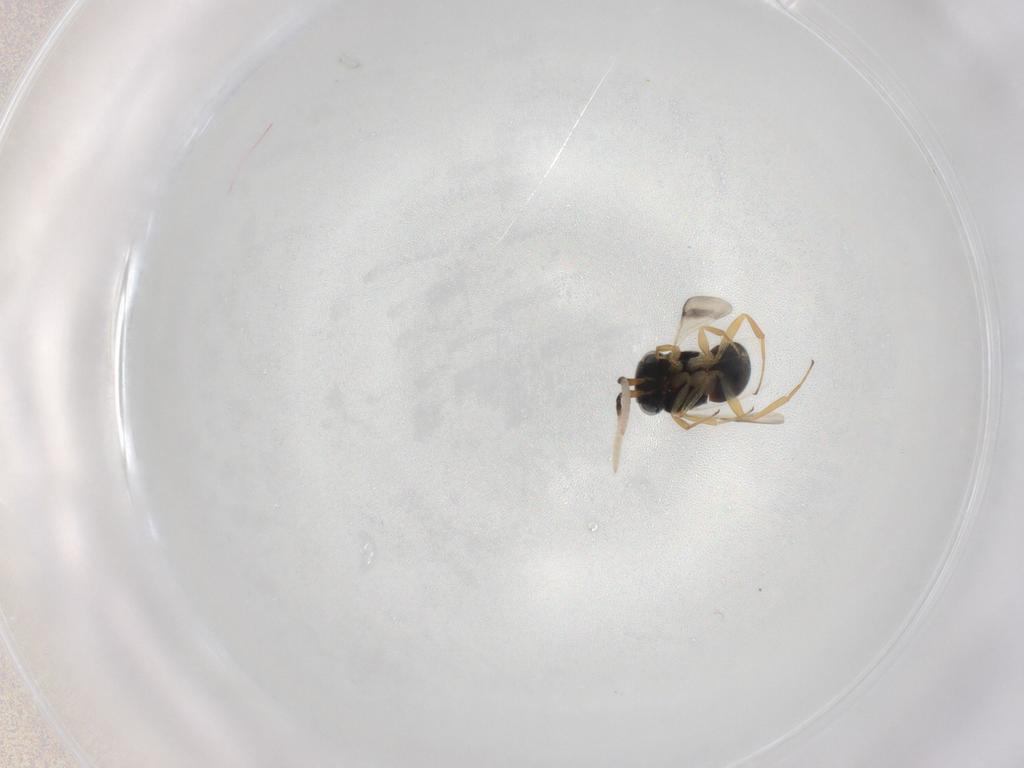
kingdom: Animalia
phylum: Arthropoda
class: Insecta
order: Hymenoptera
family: Scelionidae
